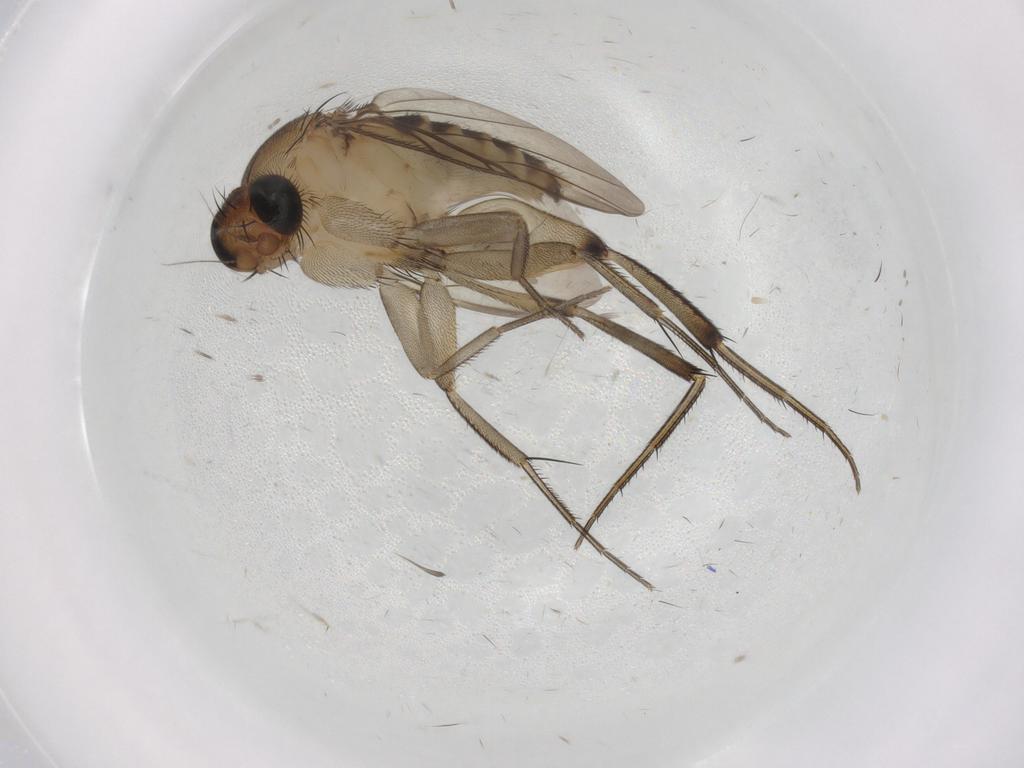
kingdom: Animalia
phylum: Arthropoda
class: Insecta
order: Diptera
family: Phoridae
